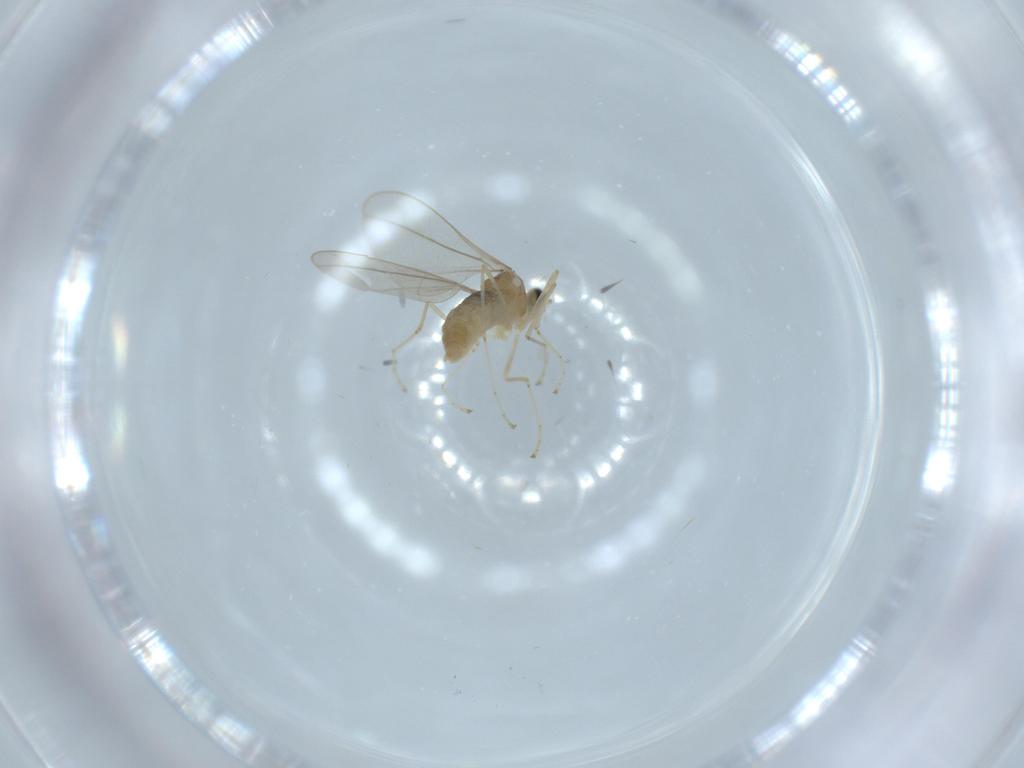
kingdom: Animalia
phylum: Arthropoda
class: Insecta
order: Diptera
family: Cecidomyiidae
